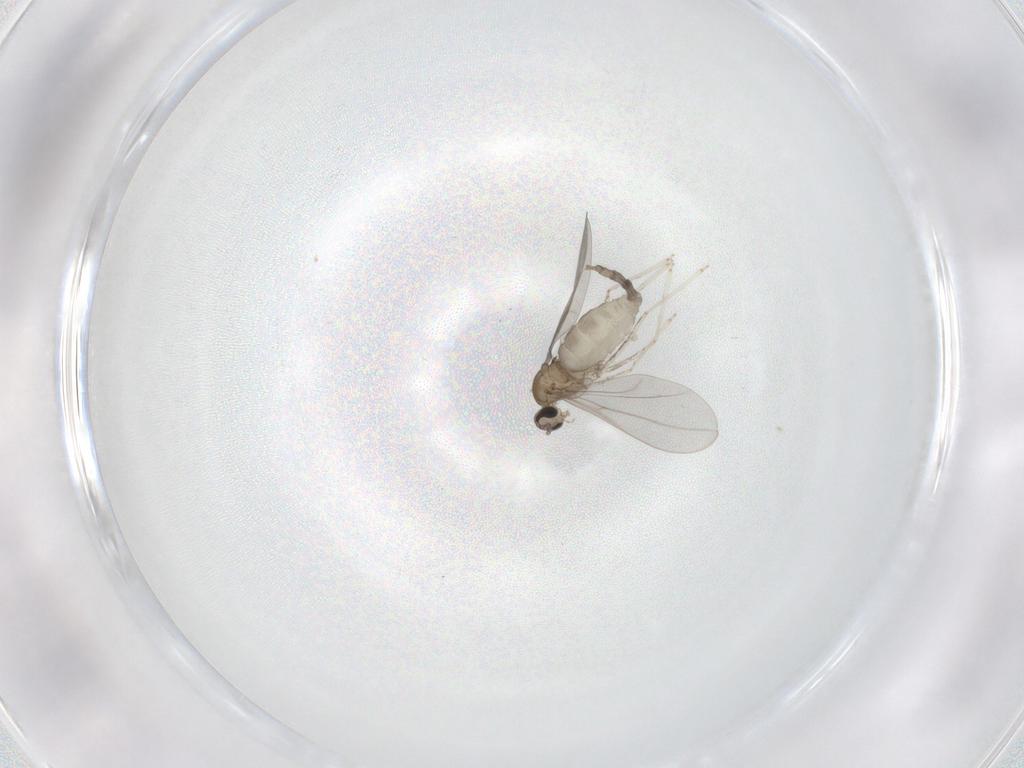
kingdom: Animalia
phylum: Arthropoda
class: Insecta
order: Diptera
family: Cecidomyiidae
